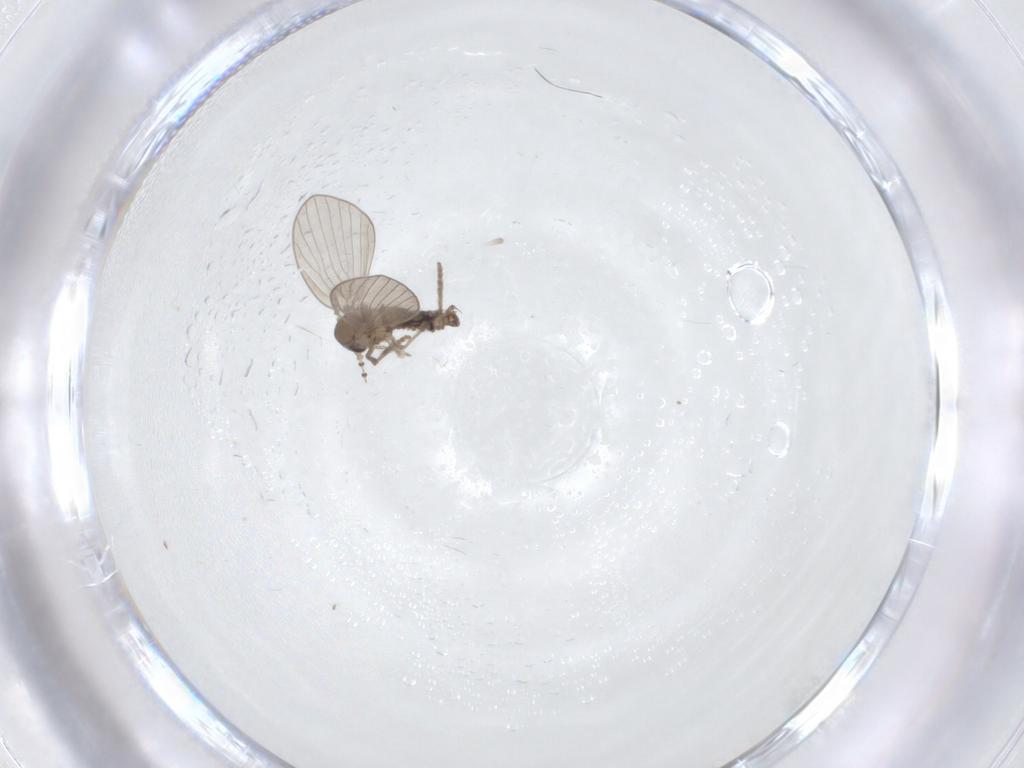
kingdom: Animalia
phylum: Arthropoda
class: Insecta
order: Diptera
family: Psychodidae
